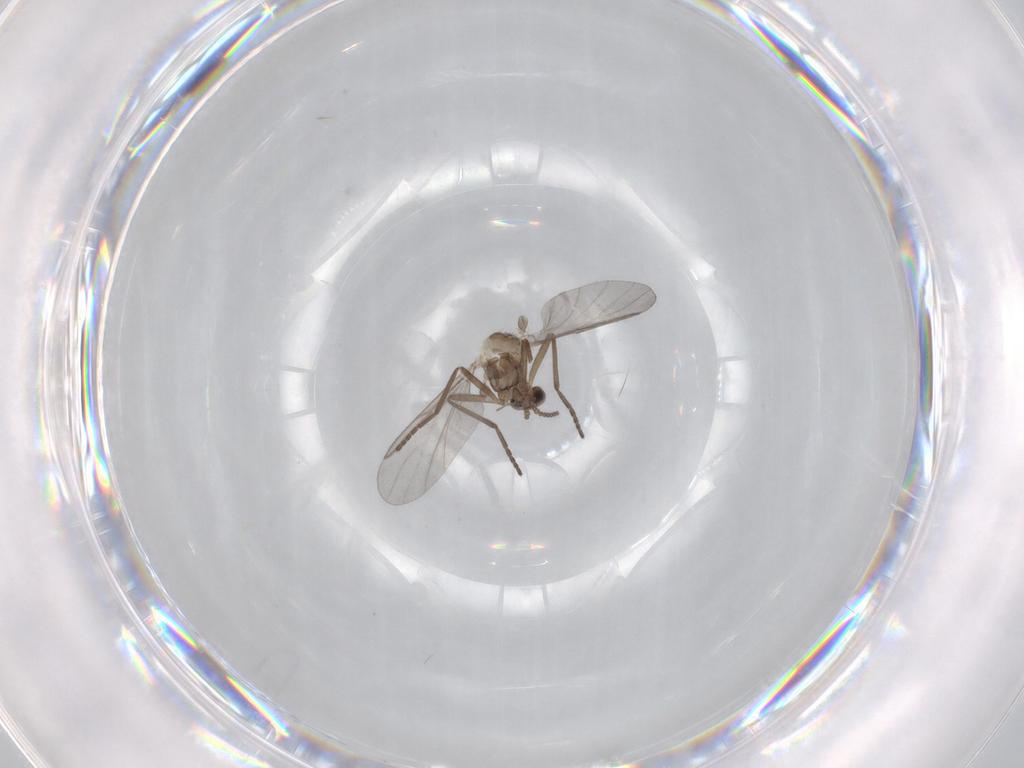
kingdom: Animalia
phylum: Arthropoda
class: Insecta
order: Diptera
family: Cecidomyiidae
